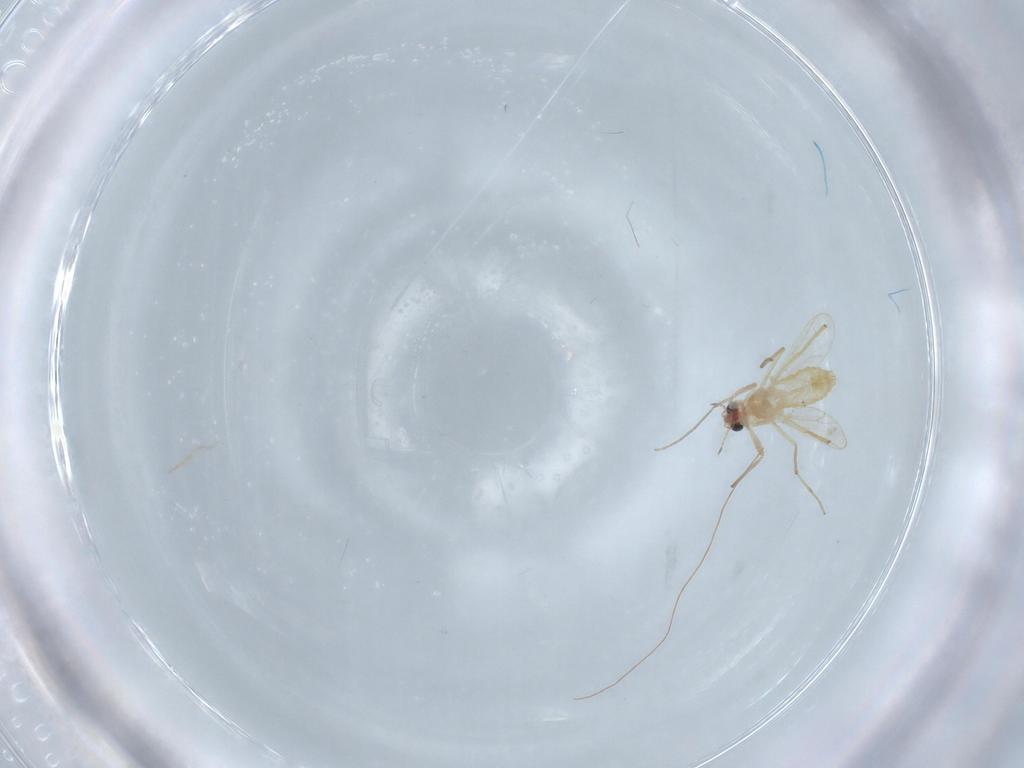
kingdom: Animalia
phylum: Arthropoda
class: Insecta
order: Diptera
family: Chironomidae
